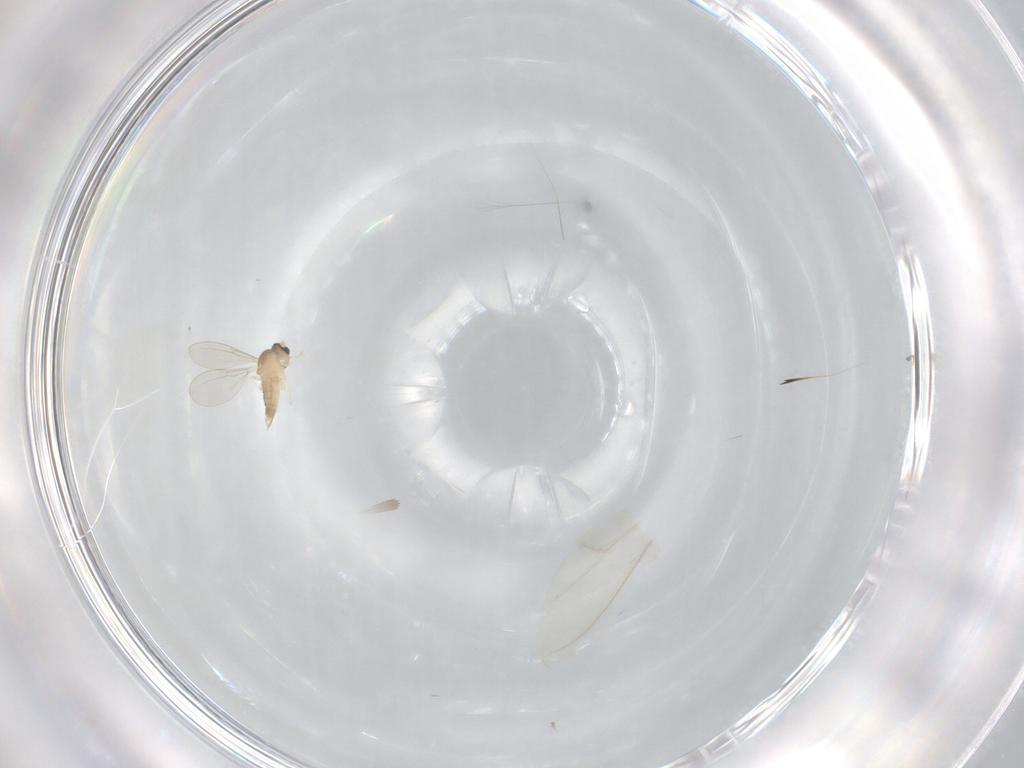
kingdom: Animalia
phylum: Arthropoda
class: Insecta
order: Diptera
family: Cecidomyiidae
